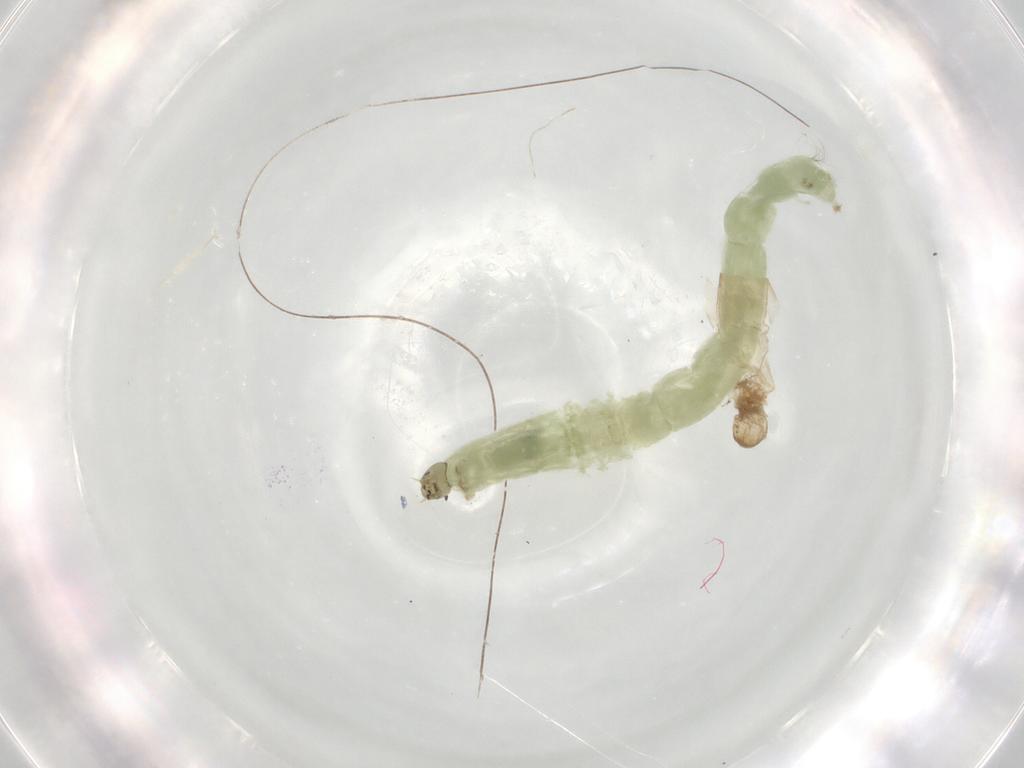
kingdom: Animalia
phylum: Arthropoda
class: Insecta
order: Diptera
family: Chironomidae
